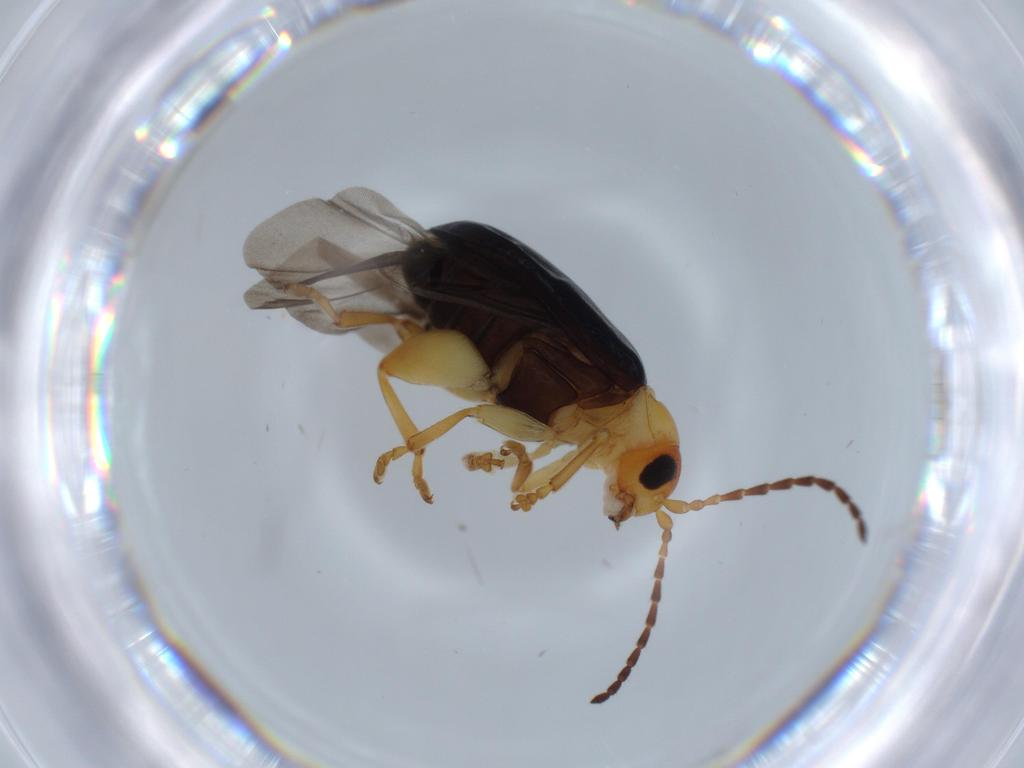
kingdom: Animalia
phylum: Arthropoda
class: Insecta
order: Coleoptera
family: Chrysomelidae
